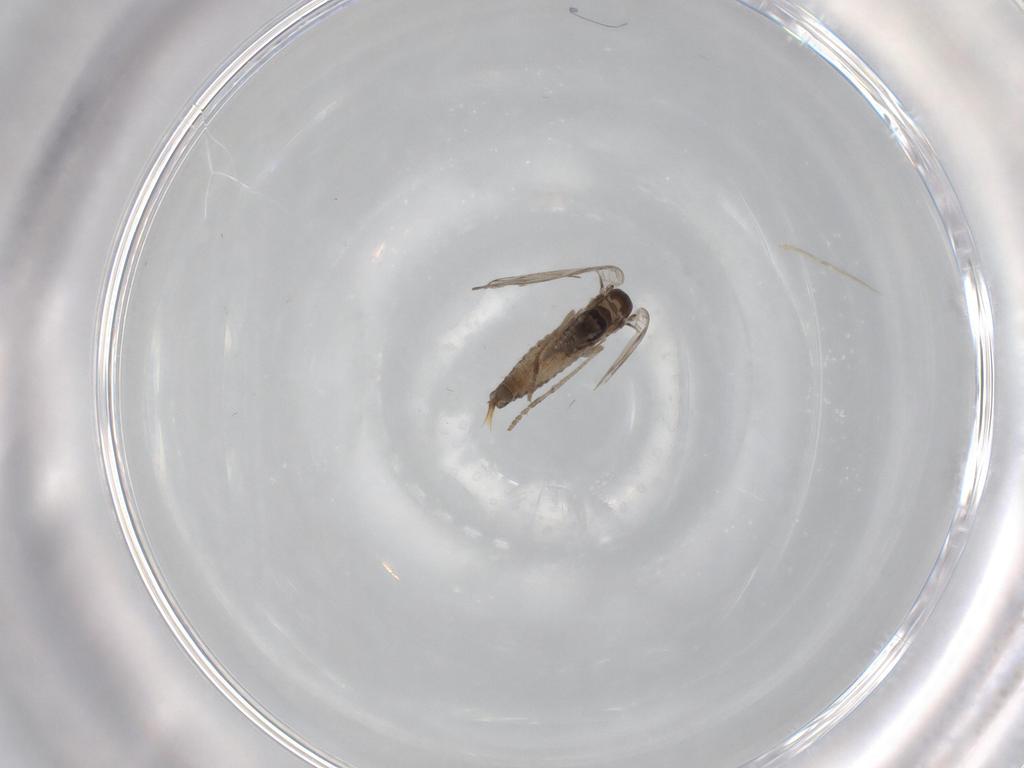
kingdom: Animalia
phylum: Arthropoda
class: Insecta
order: Diptera
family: Psychodidae
